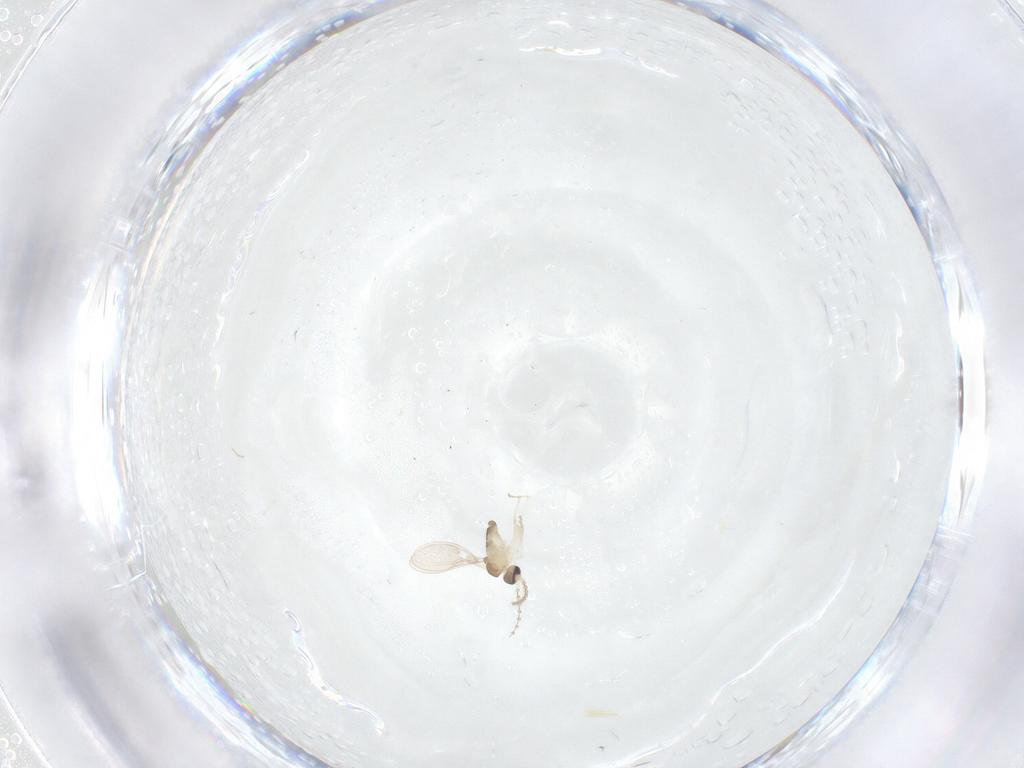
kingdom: Animalia
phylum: Arthropoda
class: Insecta
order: Diptera
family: Cecidomyiidae
